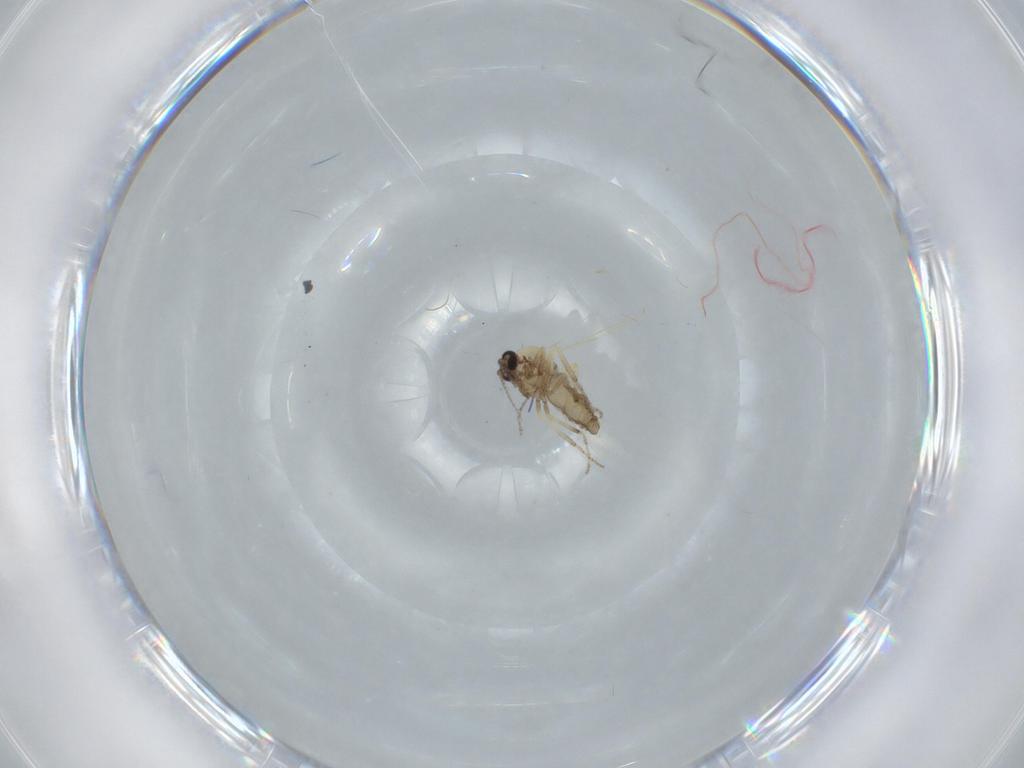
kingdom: Animalia
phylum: Arthropoda
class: Insecta
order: Diptera
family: Ceratopogonidae
